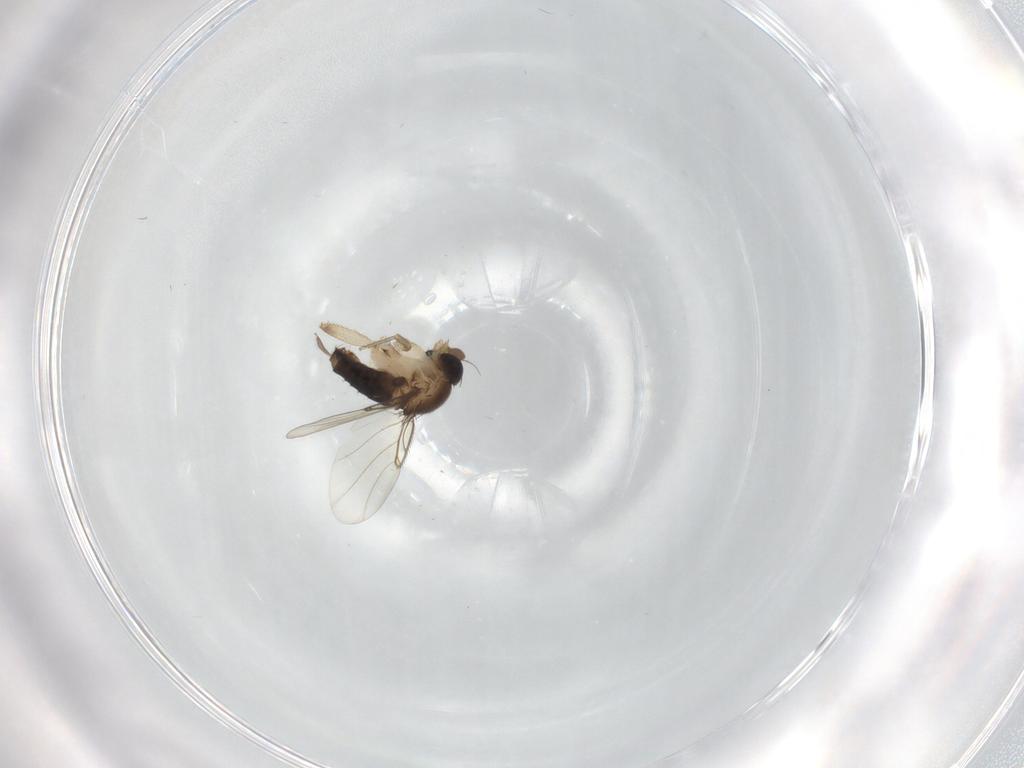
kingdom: Animalia
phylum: Arthropoda
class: Insecta
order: Diptera
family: Phoridae
